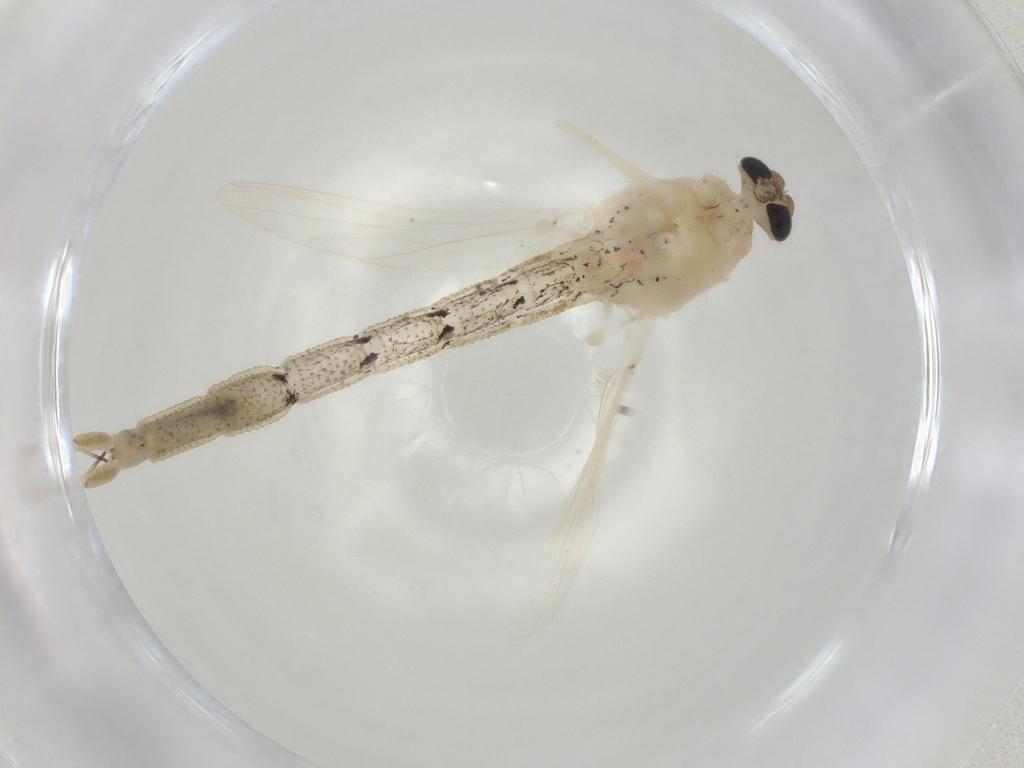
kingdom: Animalia
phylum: Arthropoda
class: Insecta
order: Diptera
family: Chaoboridae
